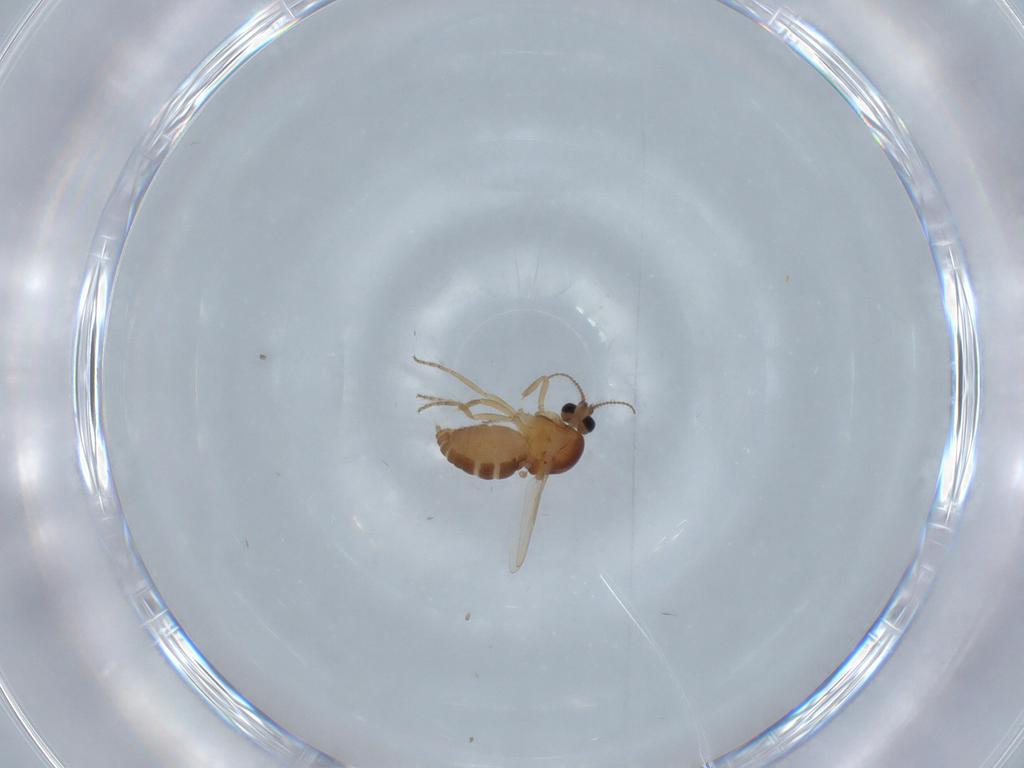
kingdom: Animalia
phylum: Arthropoda
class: Insecta
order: Diptera
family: Ceratopogonidae
